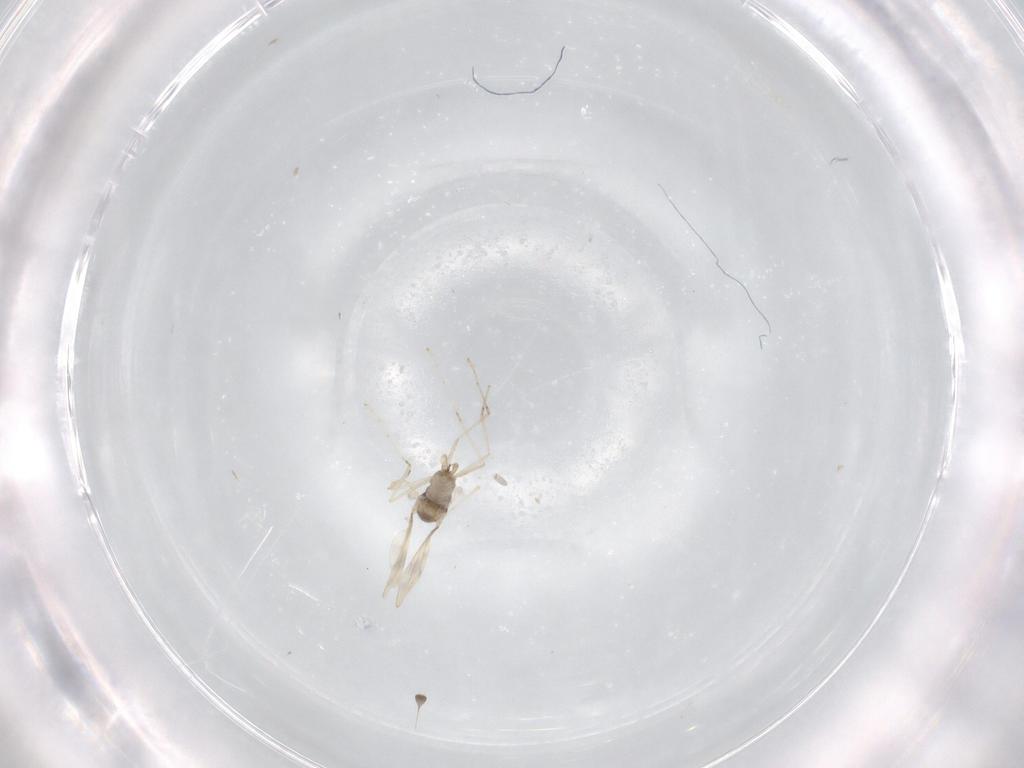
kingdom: Animalia
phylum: Arthropoda
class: Insecta
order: Diptera
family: Cecidomyiidae
